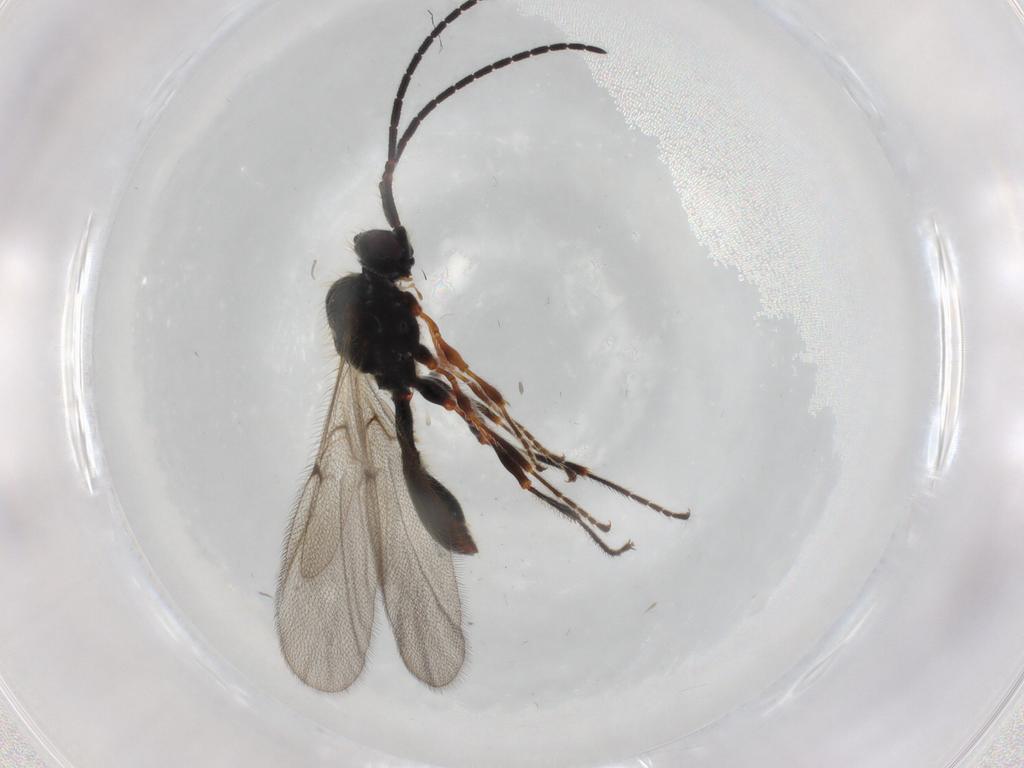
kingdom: Animalia
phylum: Arthropoda
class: Insecta
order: Hymenoptera
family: Diapriidae
